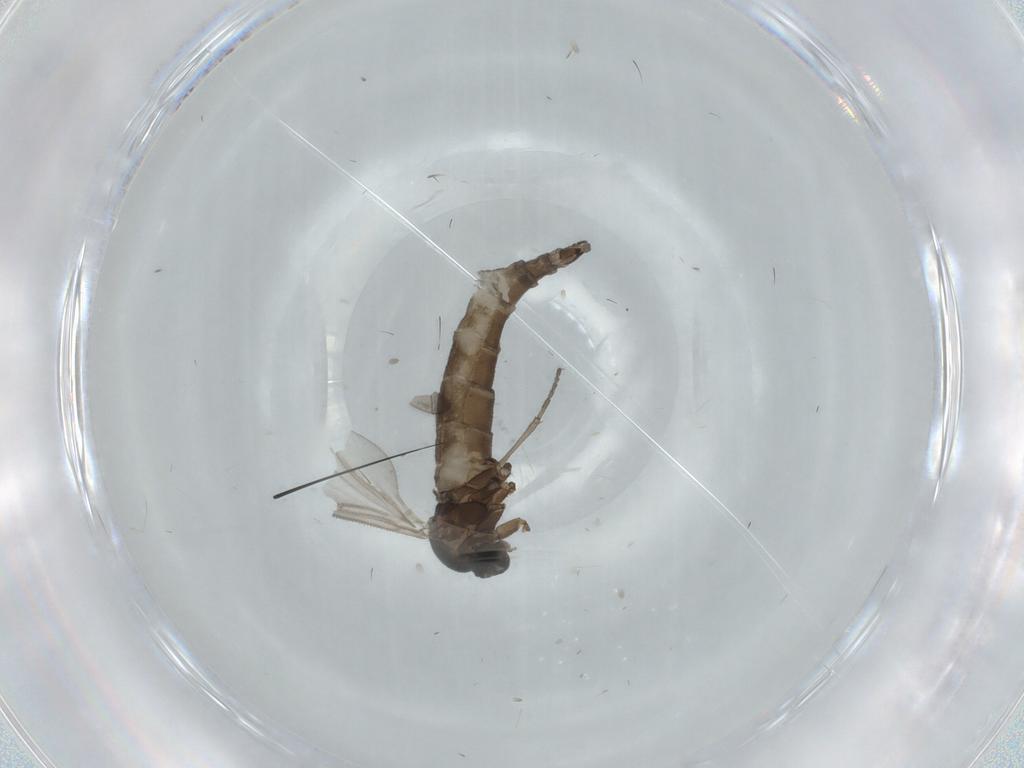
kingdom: Animalia
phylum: Arthropoda
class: Insecta
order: Diptera
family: Sciaridae
